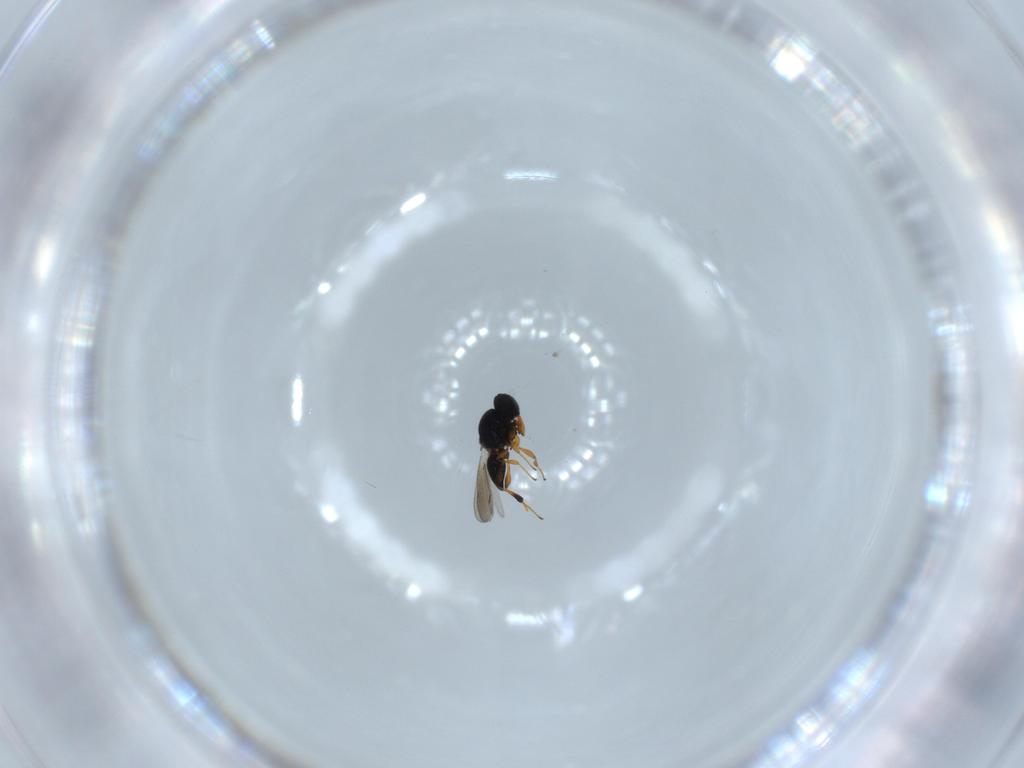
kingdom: Animalia
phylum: Arthropoda
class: Insecta
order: Hymenoptera
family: Platygastridae
